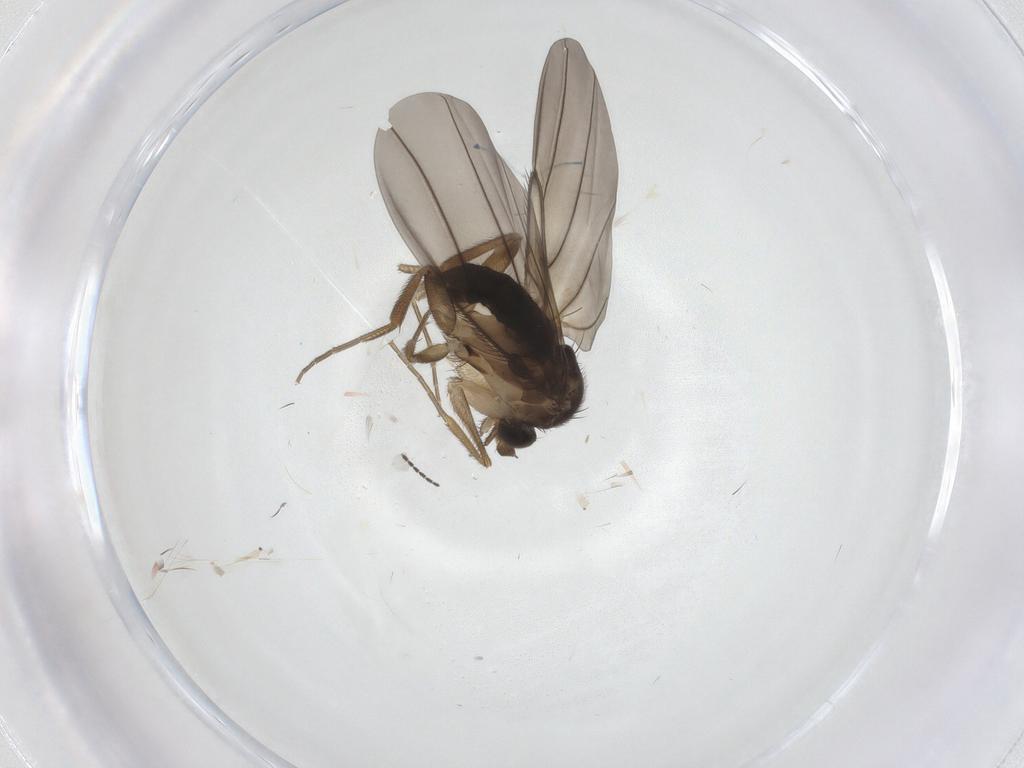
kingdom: Animalia
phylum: Arthropoda
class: Insecta
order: Diptera
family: Phoridae
